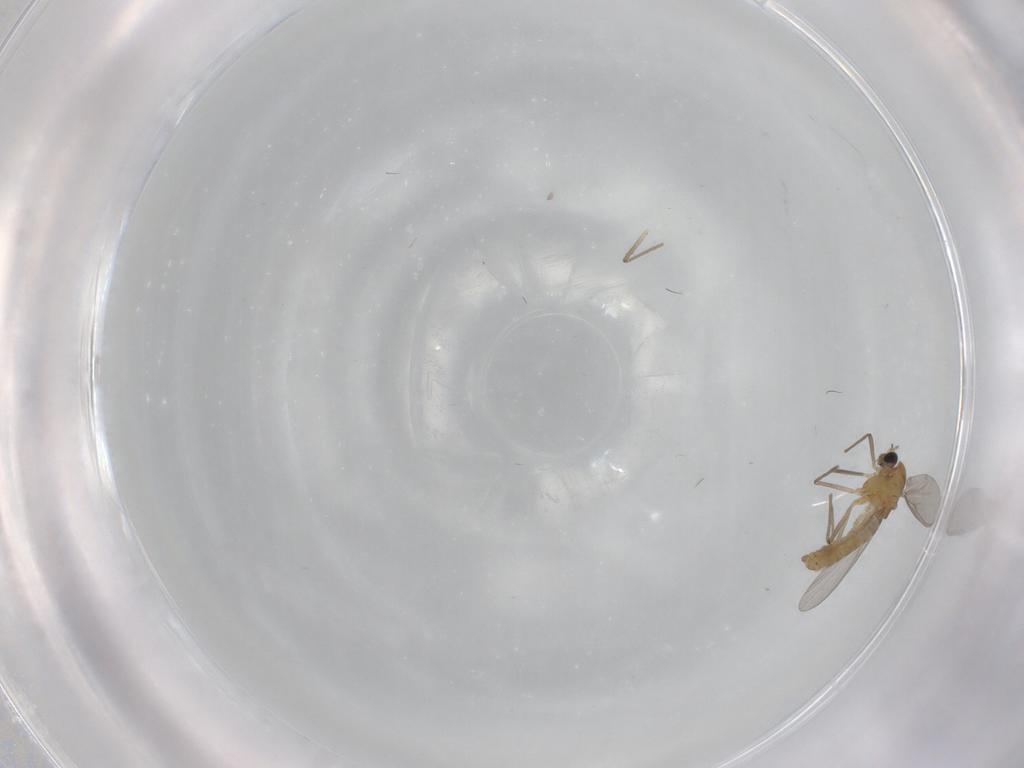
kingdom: Animalia
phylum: Arthropoda
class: Insecta
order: Diptera
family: Chironomidae
